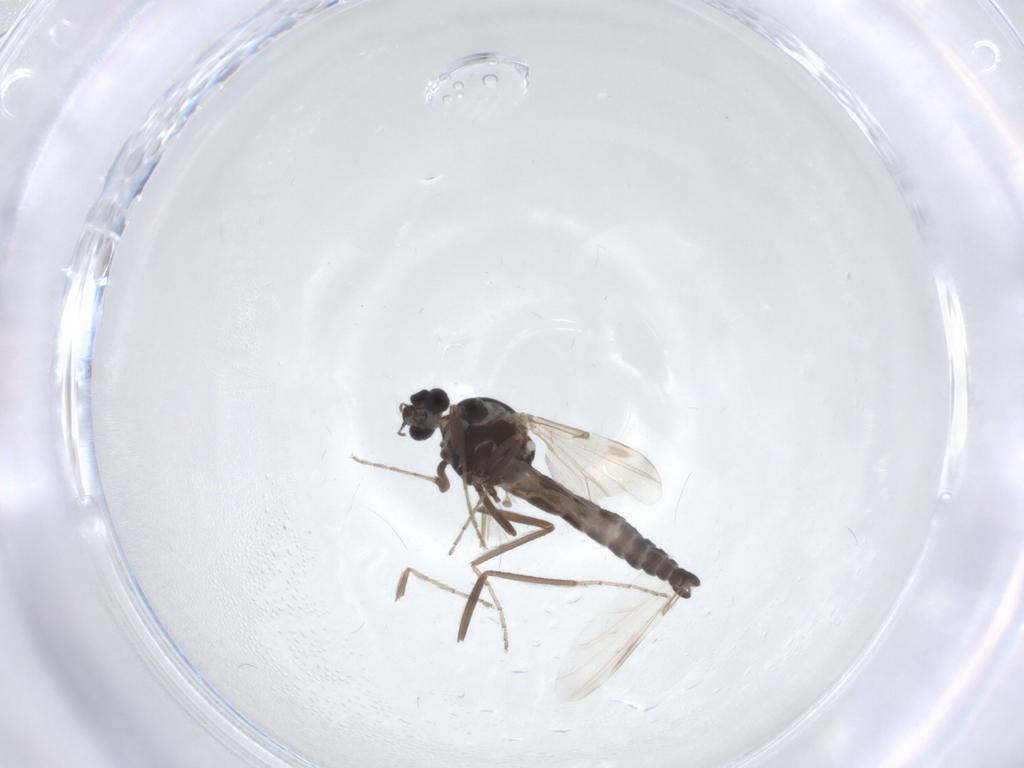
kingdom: Animalia
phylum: Arthropoda
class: Insecta
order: Diptera
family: Ceratopogonidae
